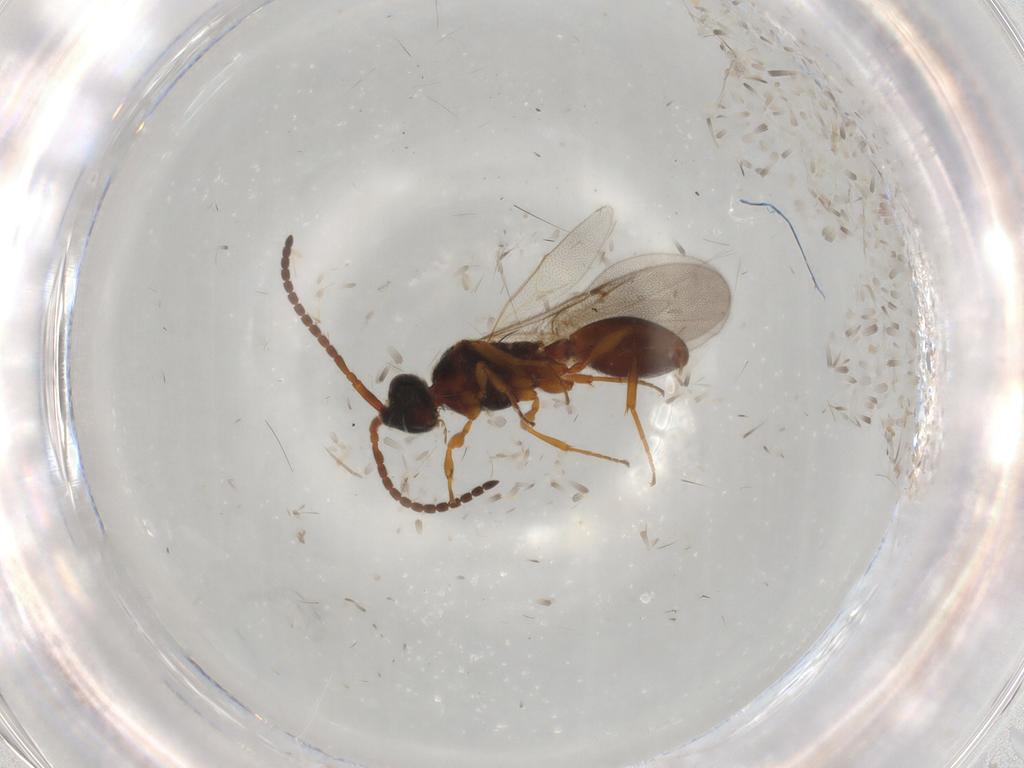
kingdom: Animalia
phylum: Arthropoda
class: Insecta
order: Hymenoptera
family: Diapriidae
